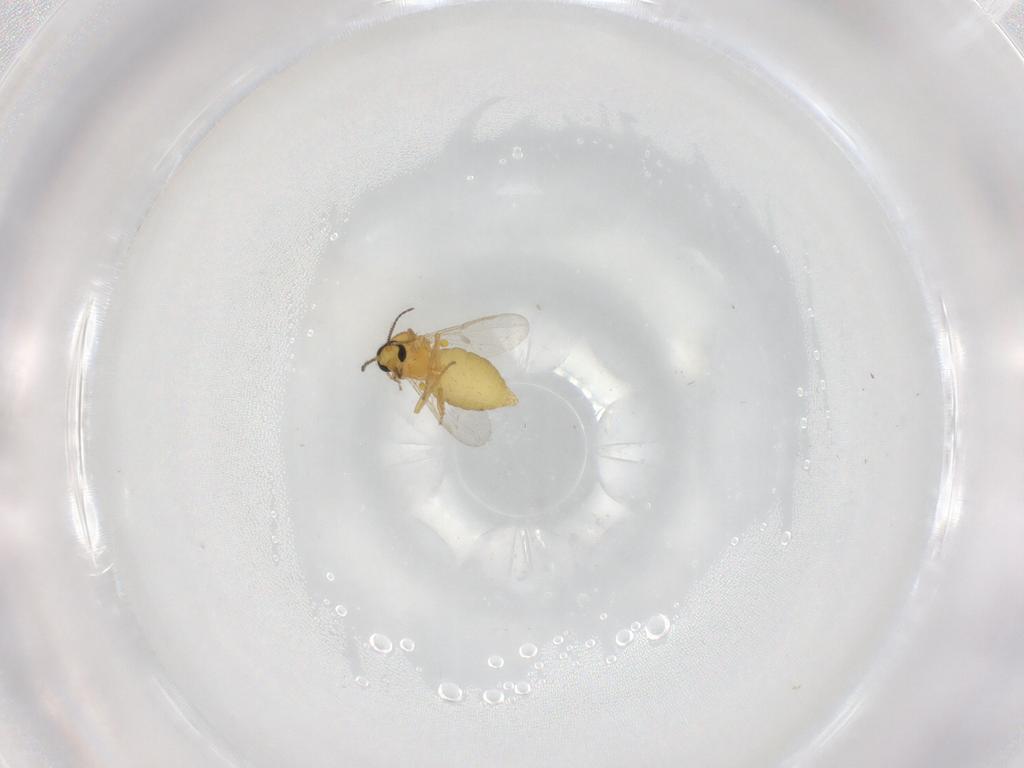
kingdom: Animalia
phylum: Arthropoda
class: Insecta
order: Diptera
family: Ceratopogonidae
